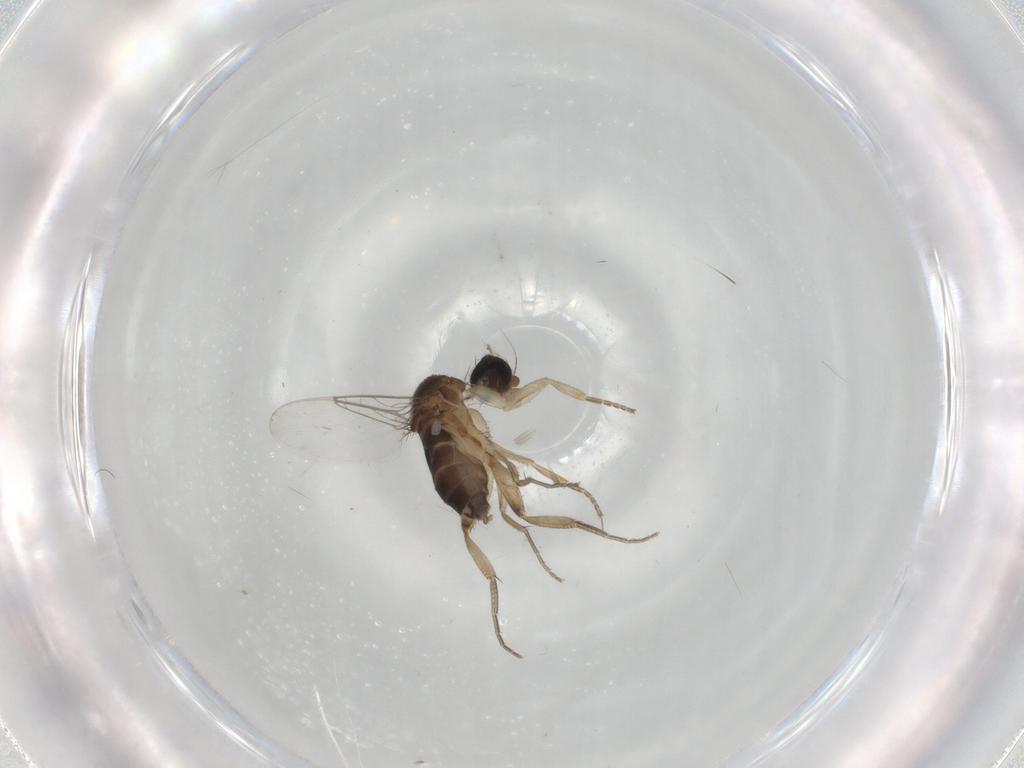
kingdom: Animalia
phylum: Arthropoda
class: Insecta
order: Diptera
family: Phoridae
